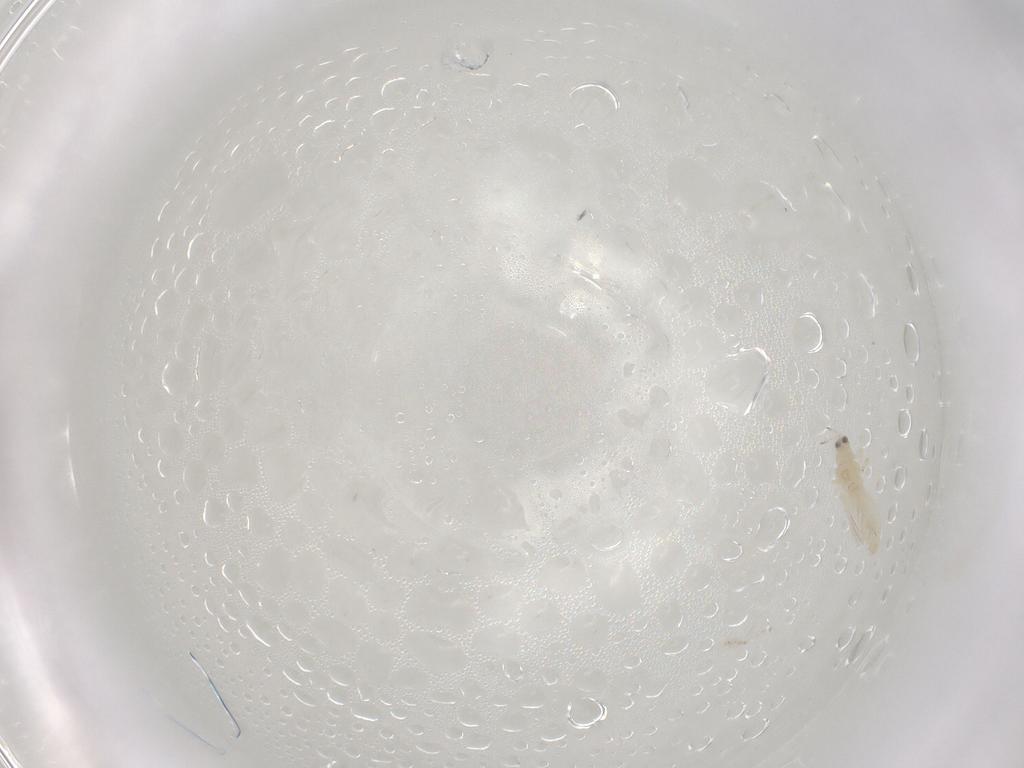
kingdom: Animalia
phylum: Arthropoda
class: Insecta
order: Thysanoptera
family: Thripidae
